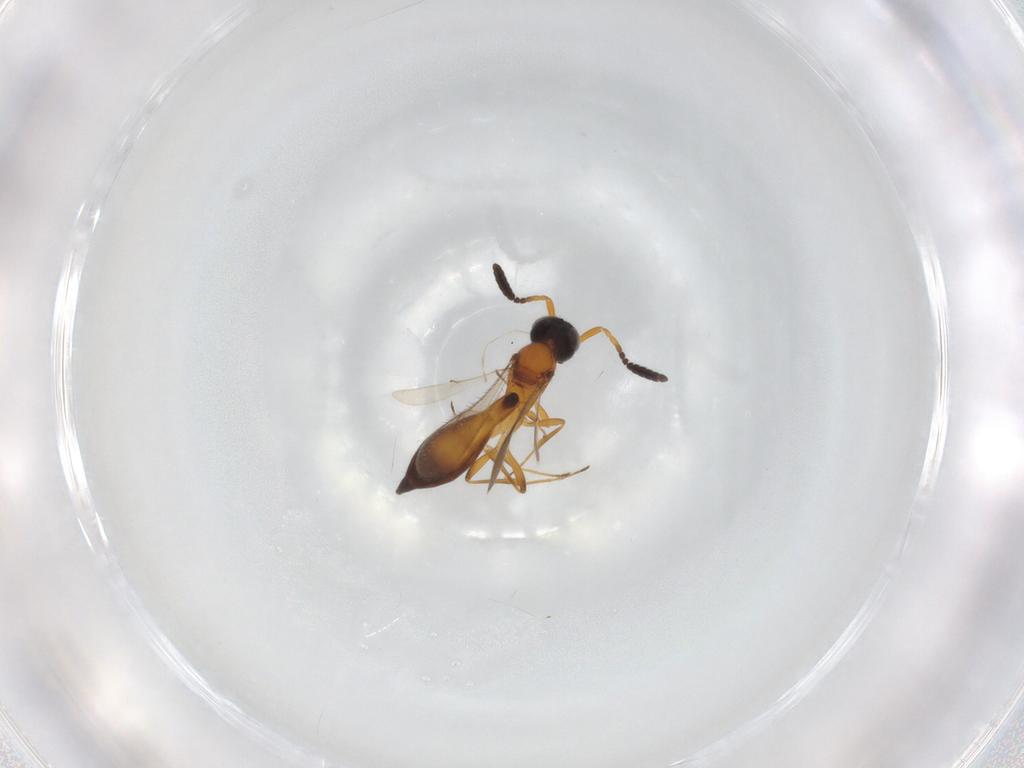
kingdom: Animalia
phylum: Arthropoda
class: Insecta
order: Hymenoptera
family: Scelionidae
